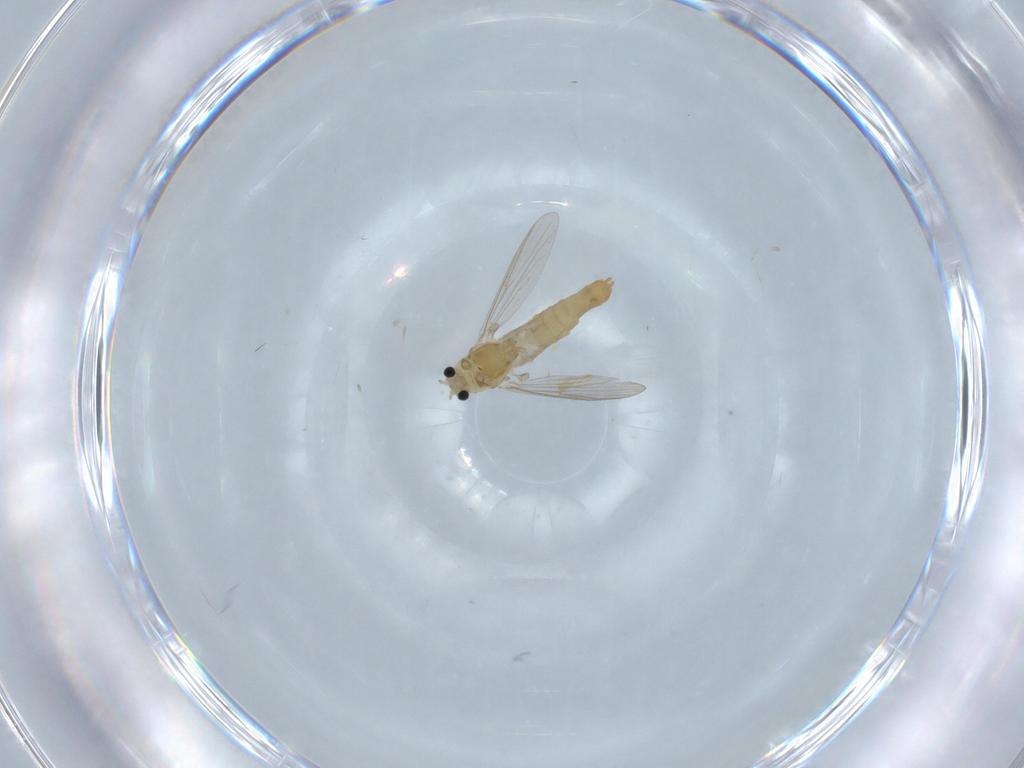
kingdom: Animalia
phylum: Arthropoda
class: Insecta
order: Diptera
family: Chironomidae
